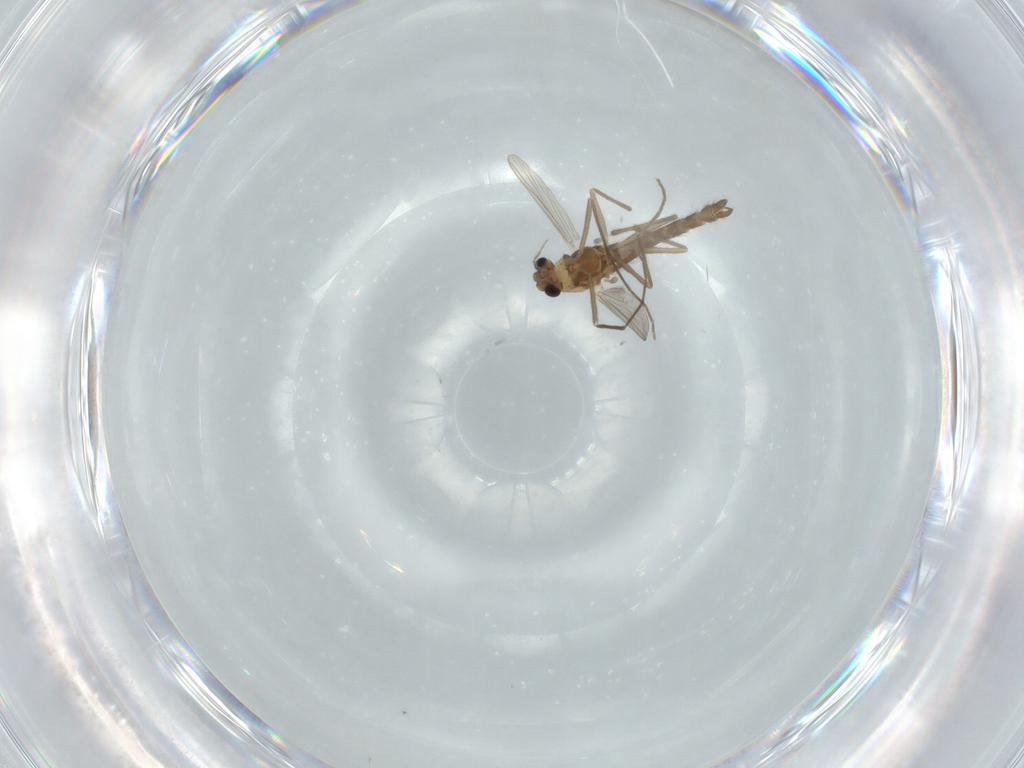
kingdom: Animalia
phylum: Arthropoda
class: Insecta
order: Diptera
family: Chironomidae
